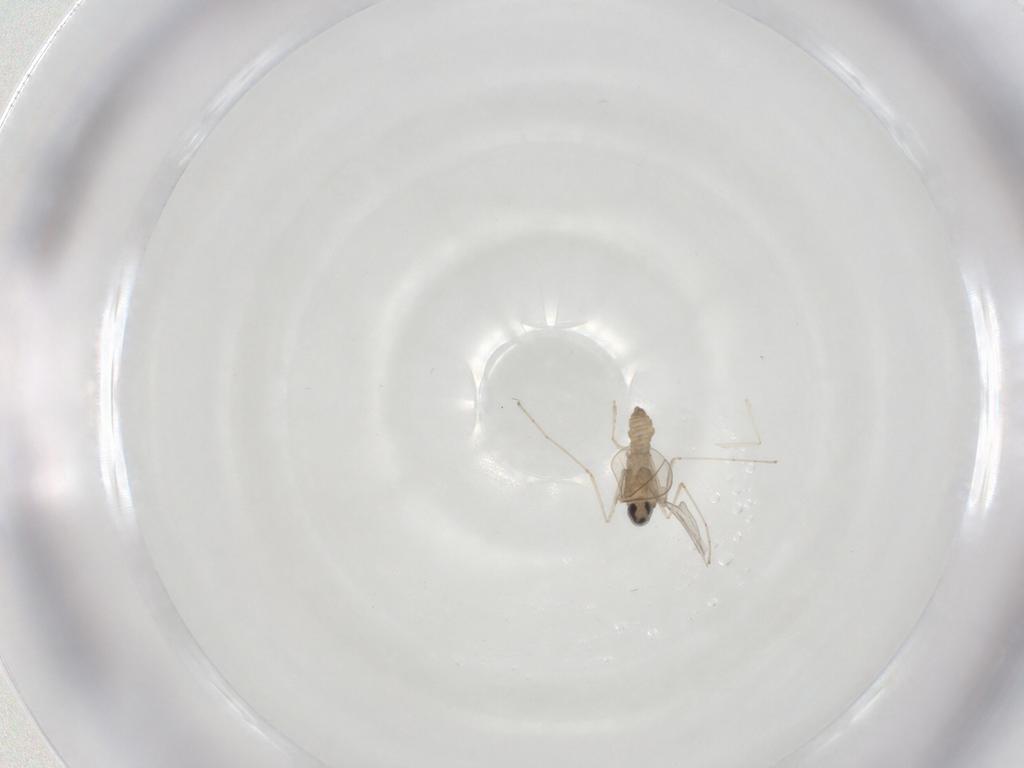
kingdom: Animalia
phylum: Arthropoda
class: Insecta
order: Diptera
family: Cecidomyiidae
